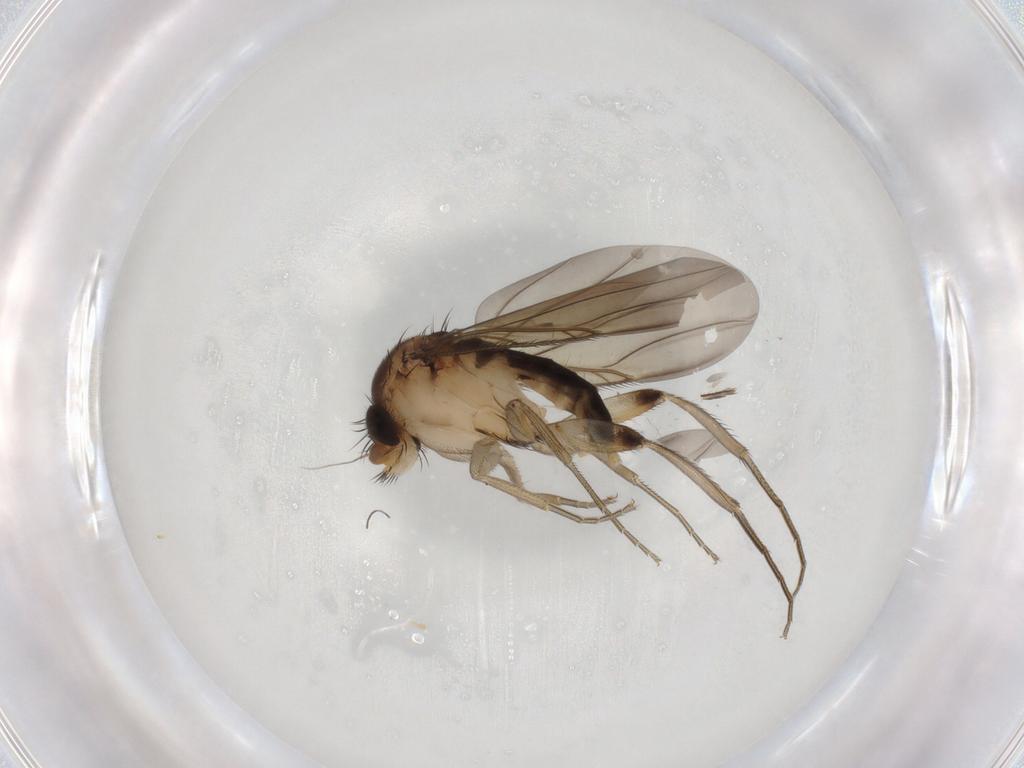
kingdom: Animalia
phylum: Arthropoda
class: Insecta
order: Diptera
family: Phoridae
